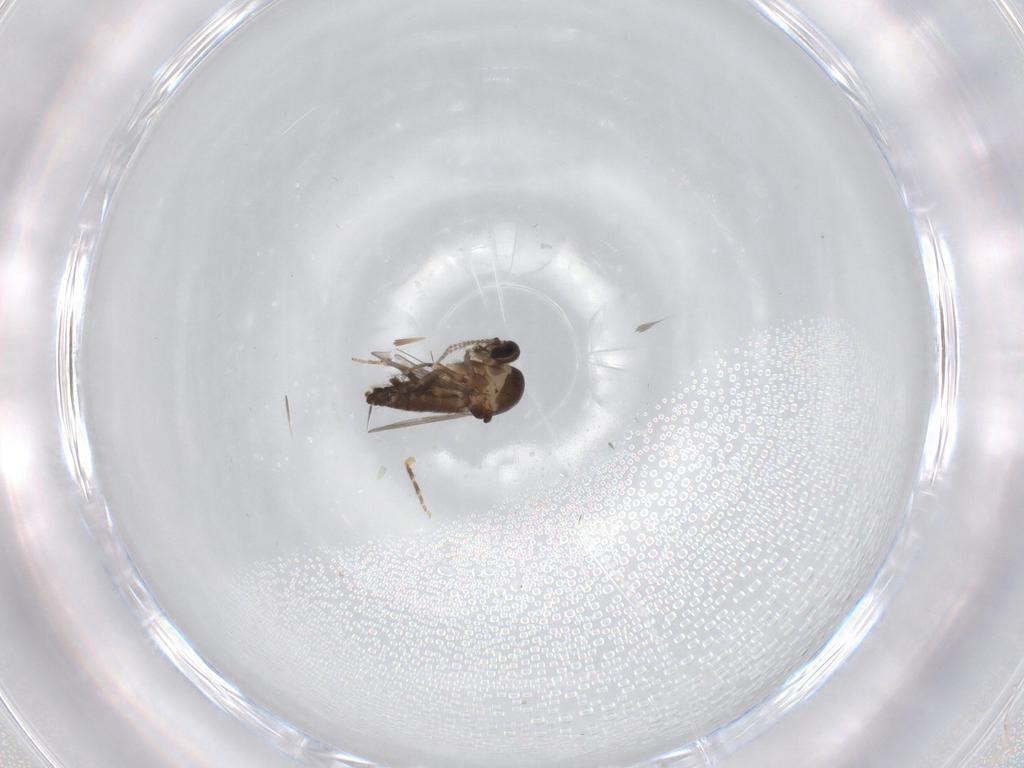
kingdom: Animalia
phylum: Arthropoda
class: Insecta
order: Diptera
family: Ceratopogonidae
